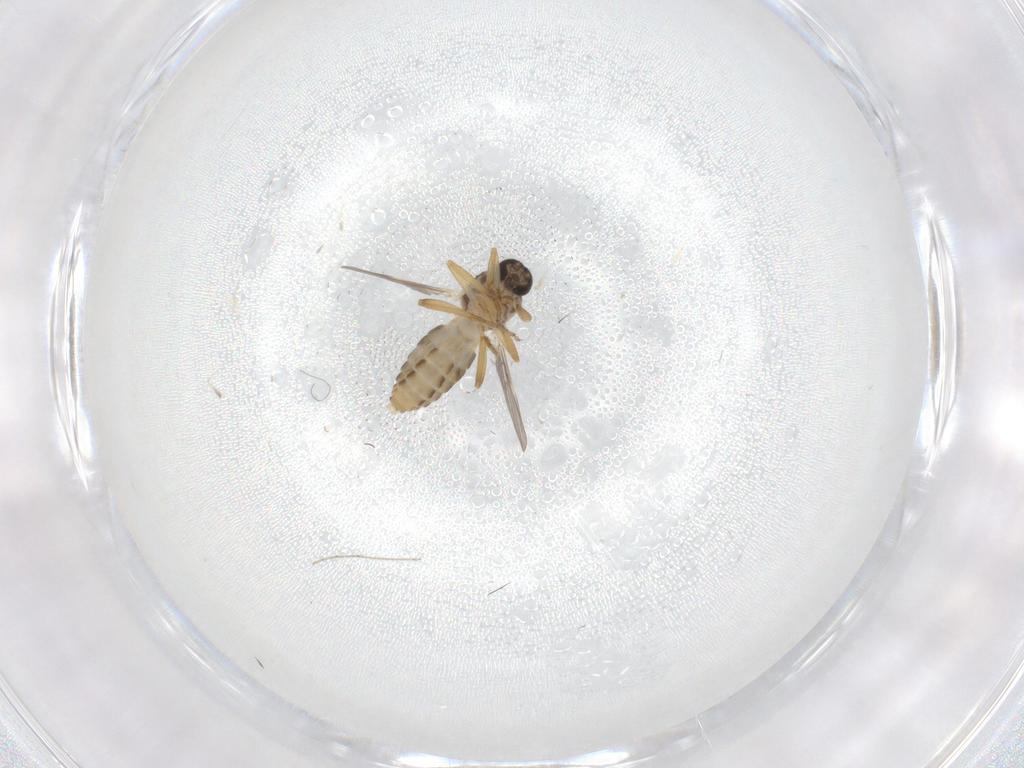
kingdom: Animalia
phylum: Arthropoda
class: Insecta
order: Diptera
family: Ceratopogonidae
